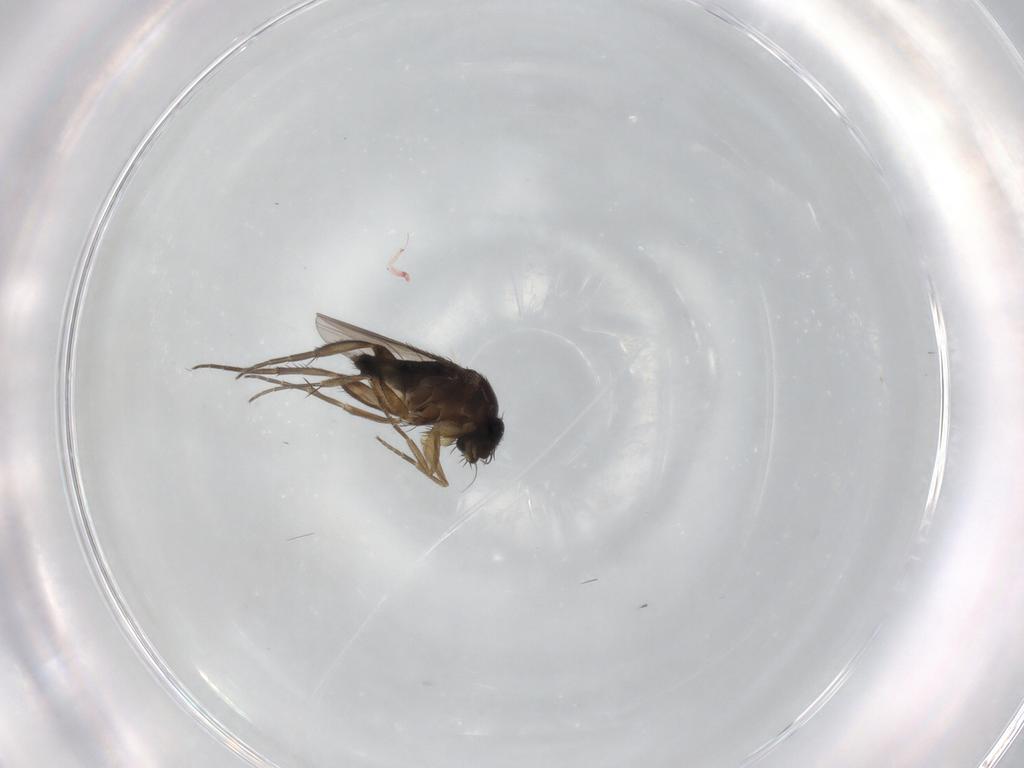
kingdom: Animalia
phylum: Arthropoda
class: Insecta
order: Diptera
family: Phoridae
